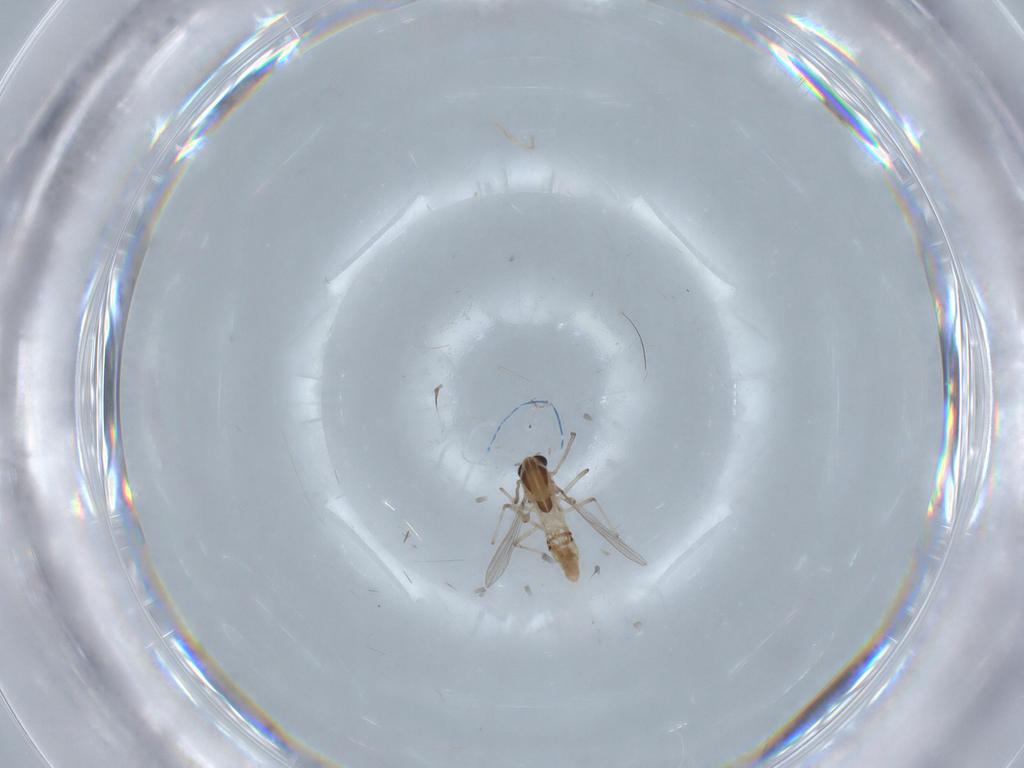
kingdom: Animalia
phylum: Arthropoda
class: Insecta
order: Diptera
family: Chironomidae
